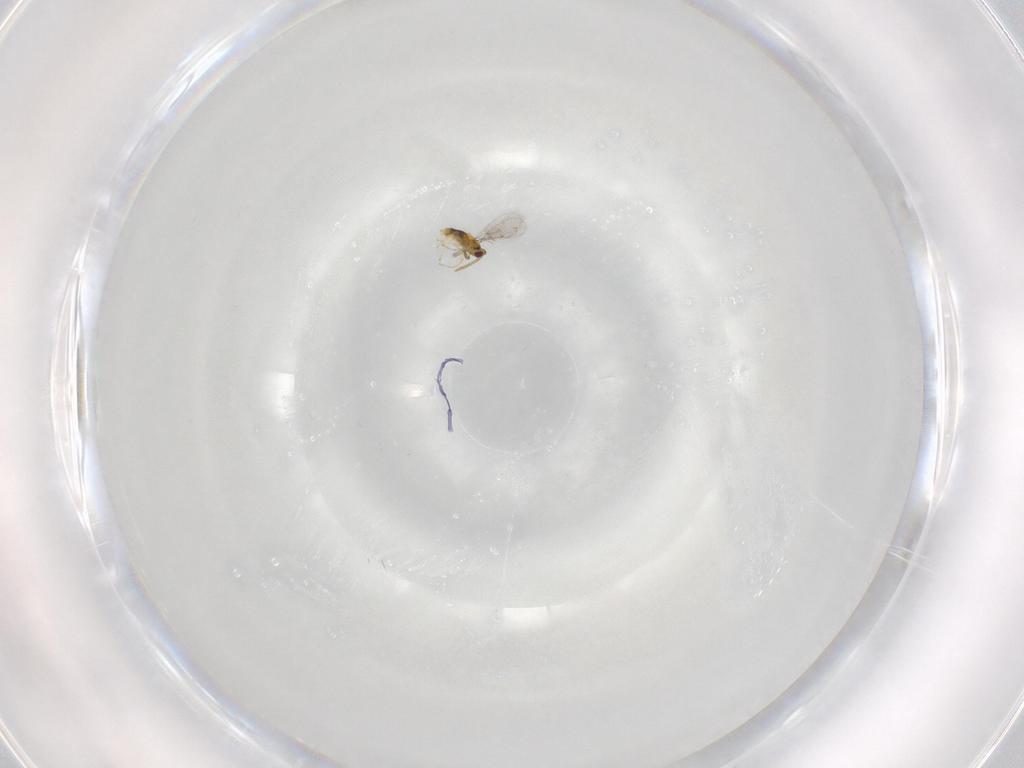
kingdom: Animalia
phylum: Arthropoda
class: Insecta
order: Hymenoptera
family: Aphelinidae
